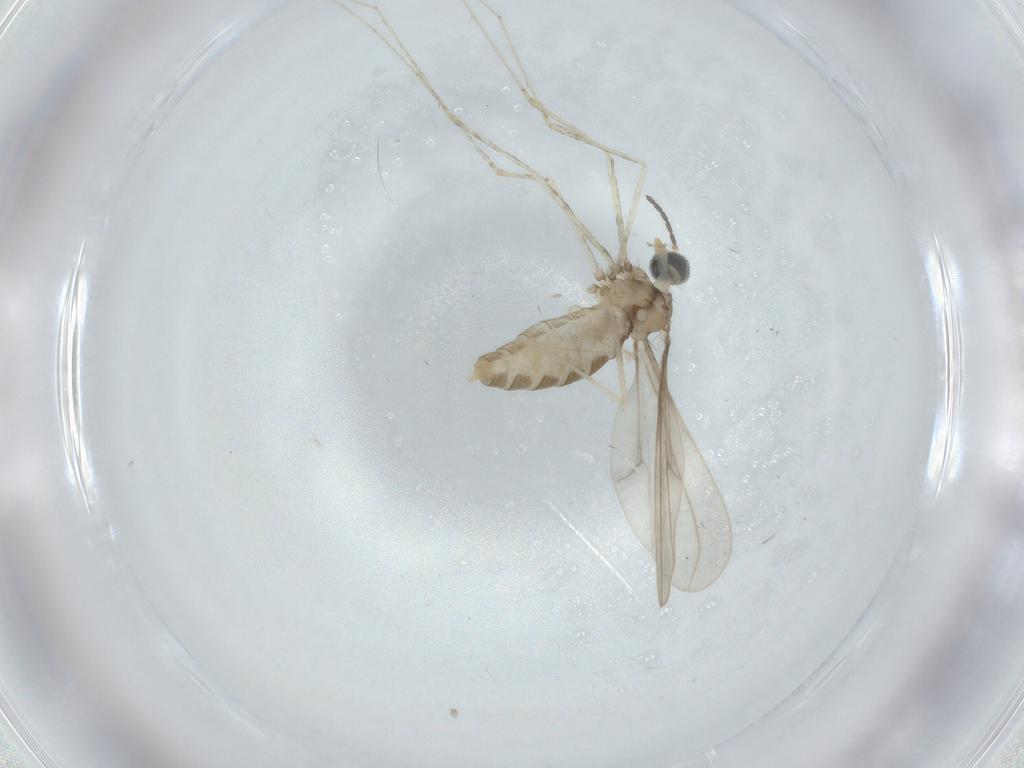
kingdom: Animalia
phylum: Arthropoda
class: Insecta
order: Diptera
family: Cecidomyiidae
